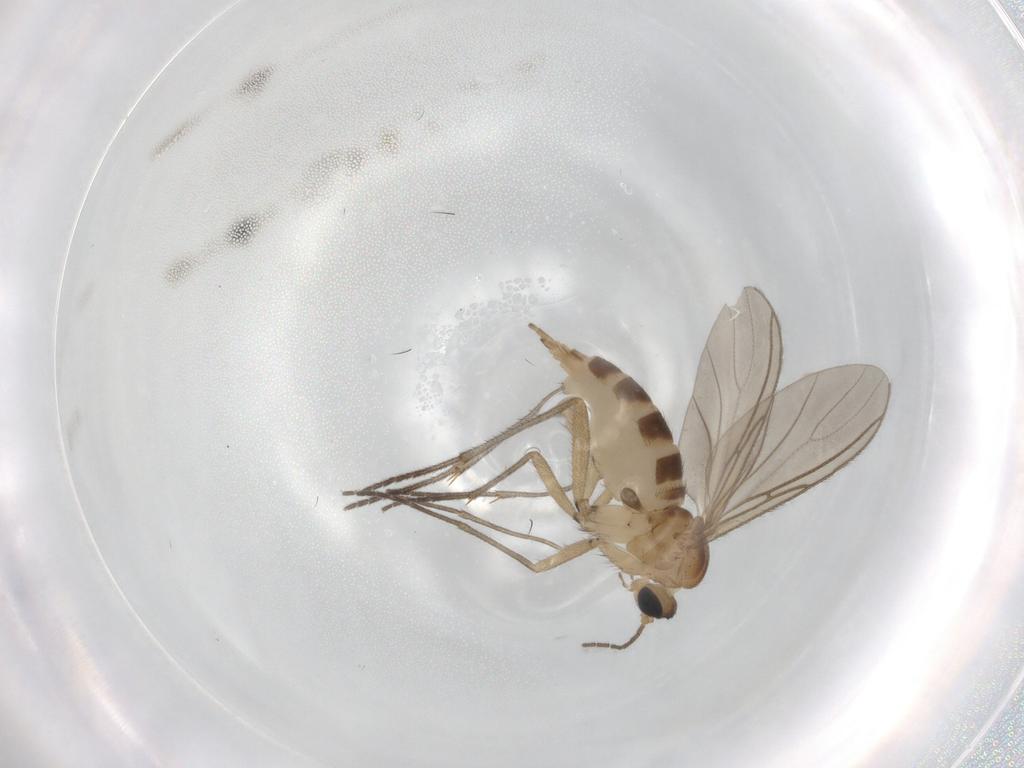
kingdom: Animalia
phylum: Arthropoda
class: Insecta
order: Diptera
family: Sciaridae
